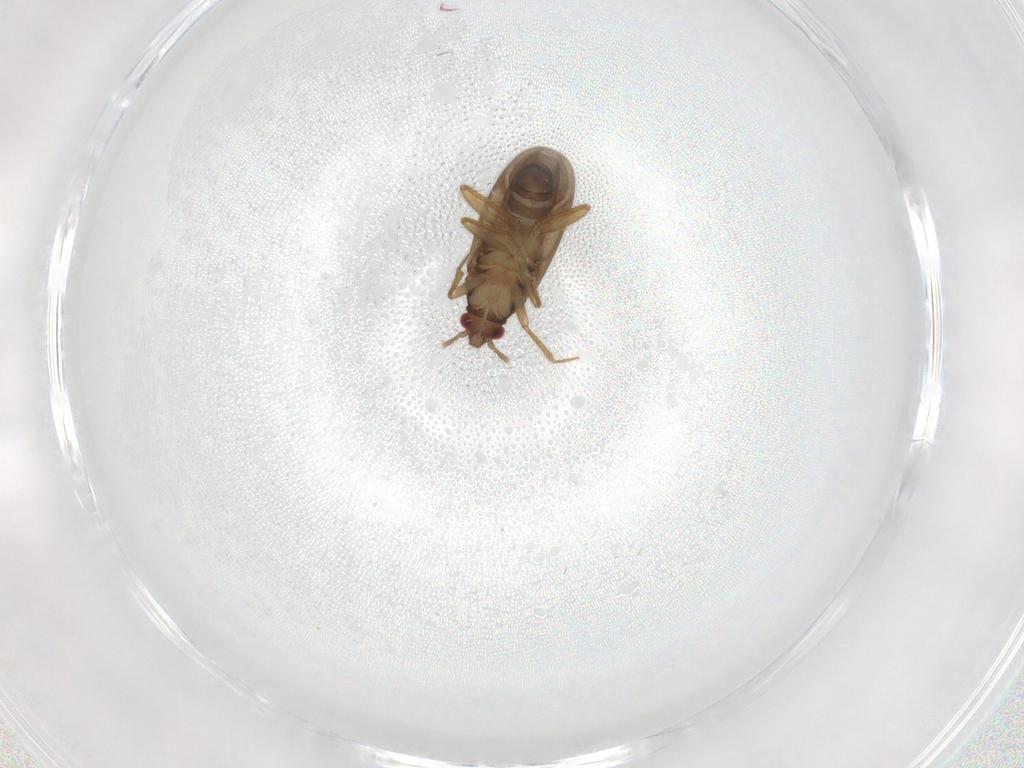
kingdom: Animalia
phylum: Arthropoda
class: Insecta
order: Hemiptera
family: Ceratocombidae
